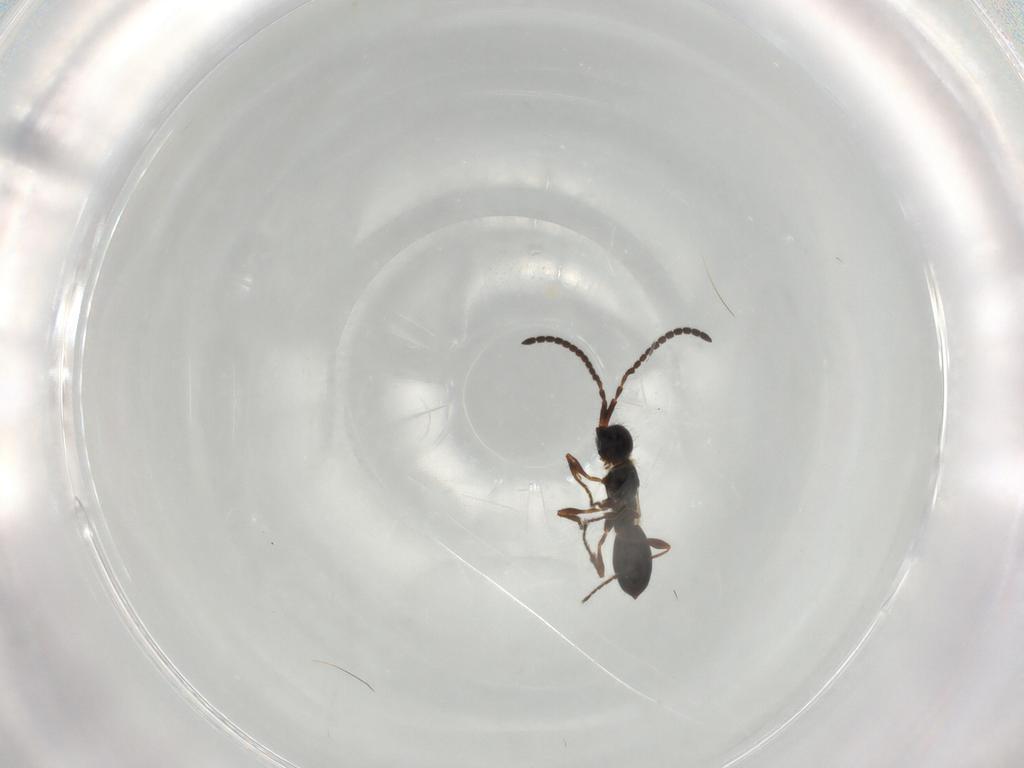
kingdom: Animalia
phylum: Arthropoda
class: Insecta
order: Hymenoptera
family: Diapriidae
